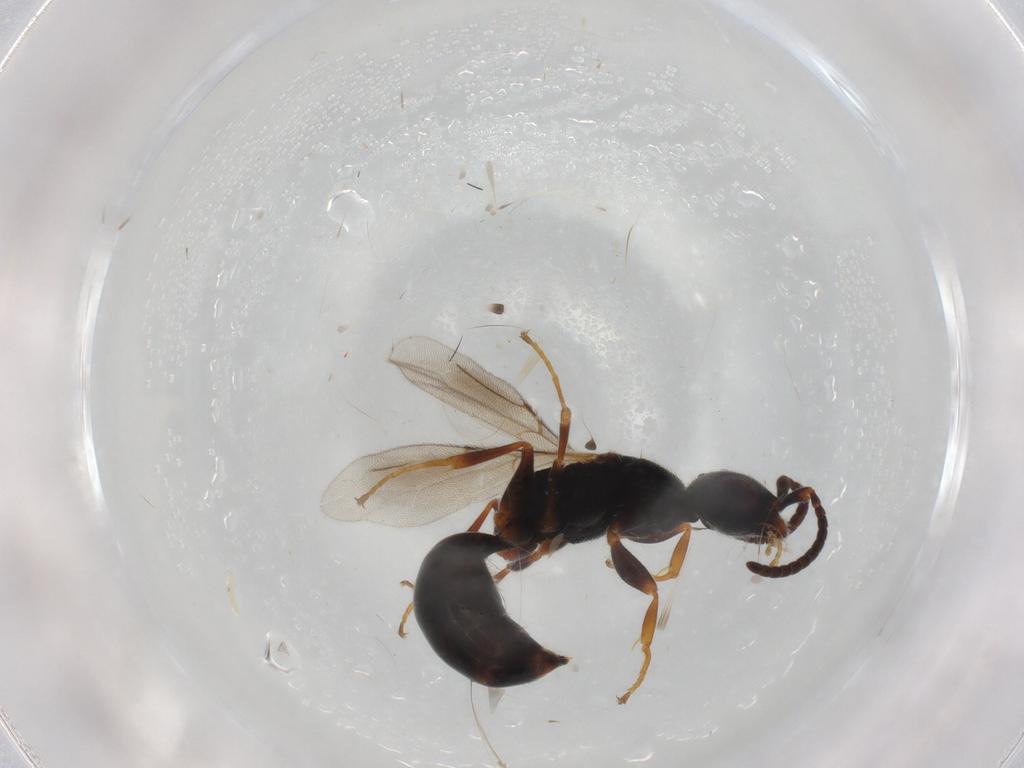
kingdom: Animalia
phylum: Arthropoda
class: Insecta
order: Hymenoptera
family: Bethylidae
